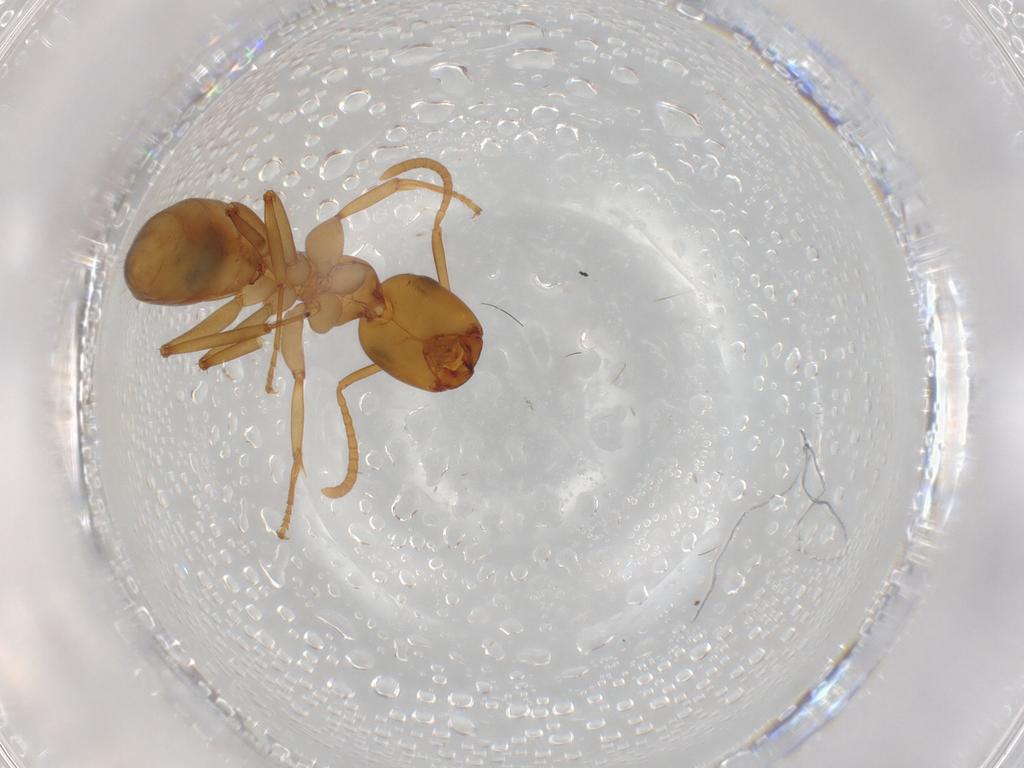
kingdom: Animalia
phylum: Arthropoda
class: Insecta
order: Hymenoptera
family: Formicidae
